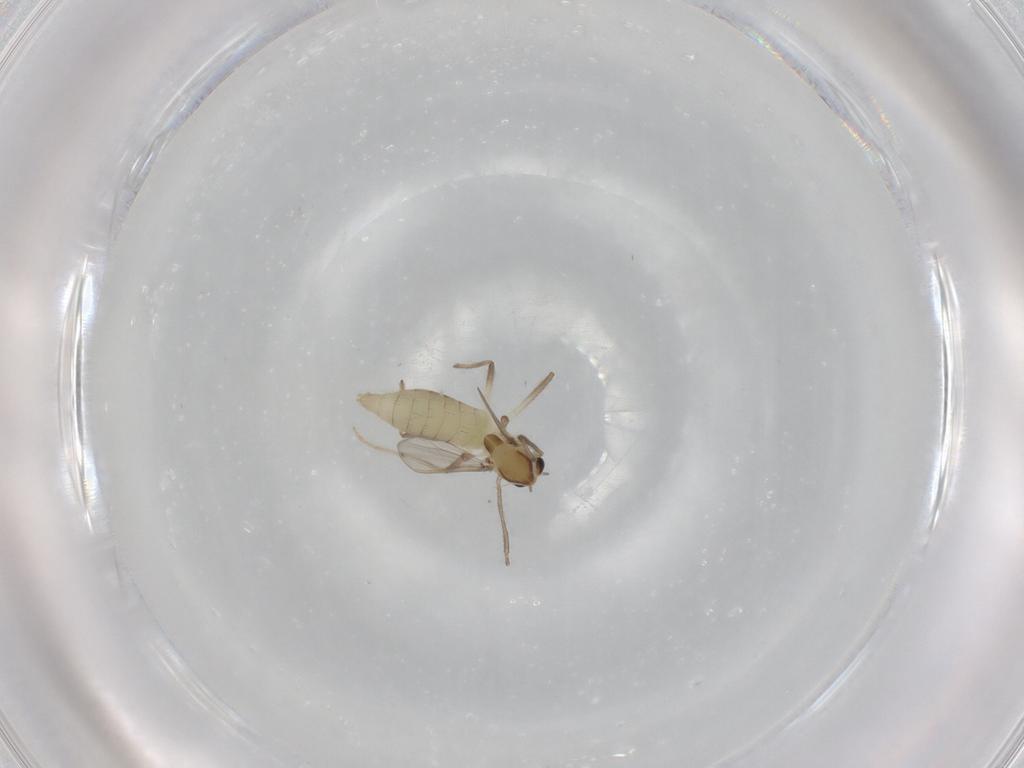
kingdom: Animalia
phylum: Arthropoda
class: Insecta
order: Diptera
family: Chironomidae
